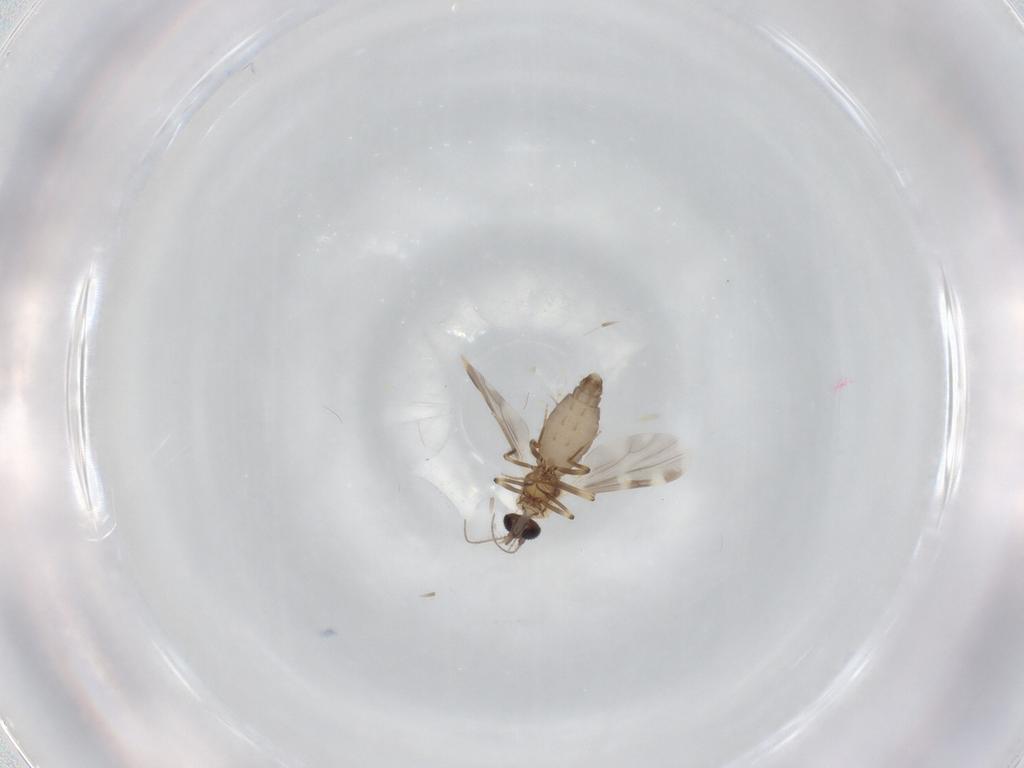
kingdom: Animalia
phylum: Arthropoda
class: Insecta
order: Diptera
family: Ceratopogonidae
